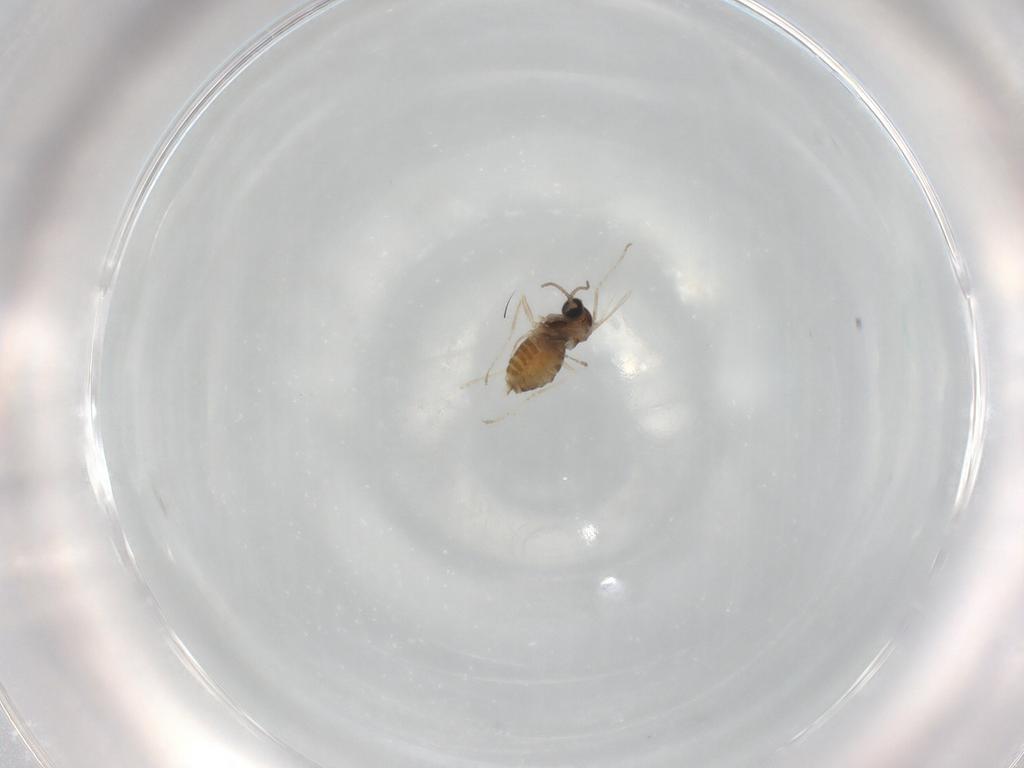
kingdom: Animalia
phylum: Arthropoda
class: Insecta
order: Diptera
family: Cecidomyiidae
